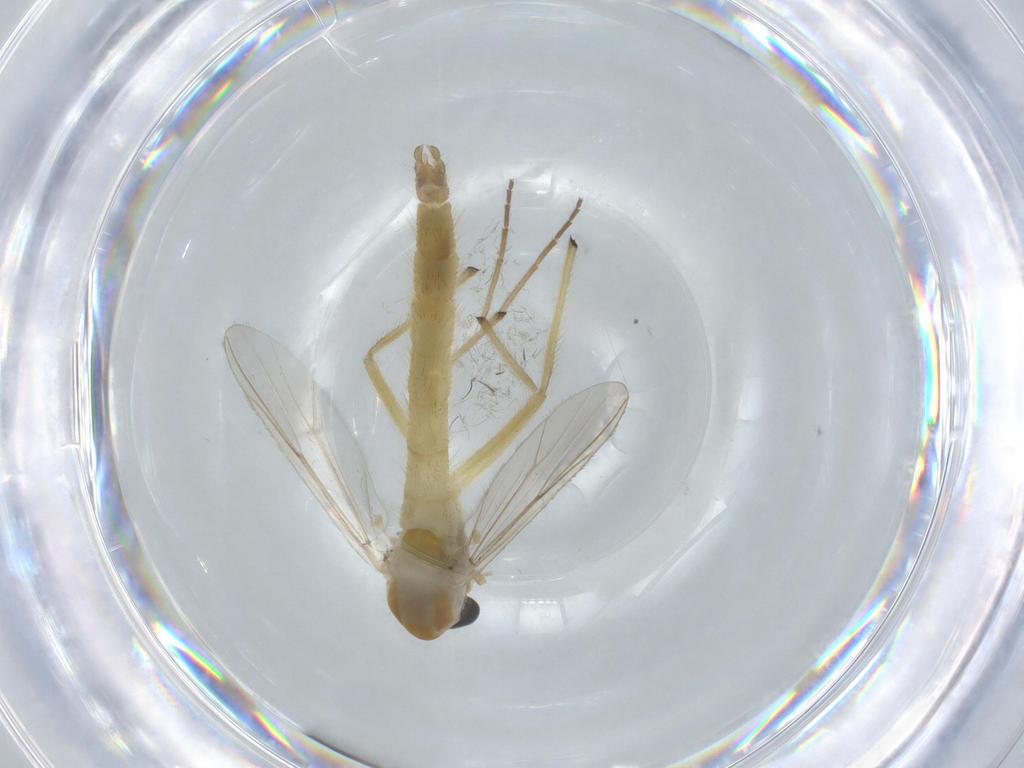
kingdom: Animalia
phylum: Arthropoda
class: Insecta
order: Diptera
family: Chironomidae
